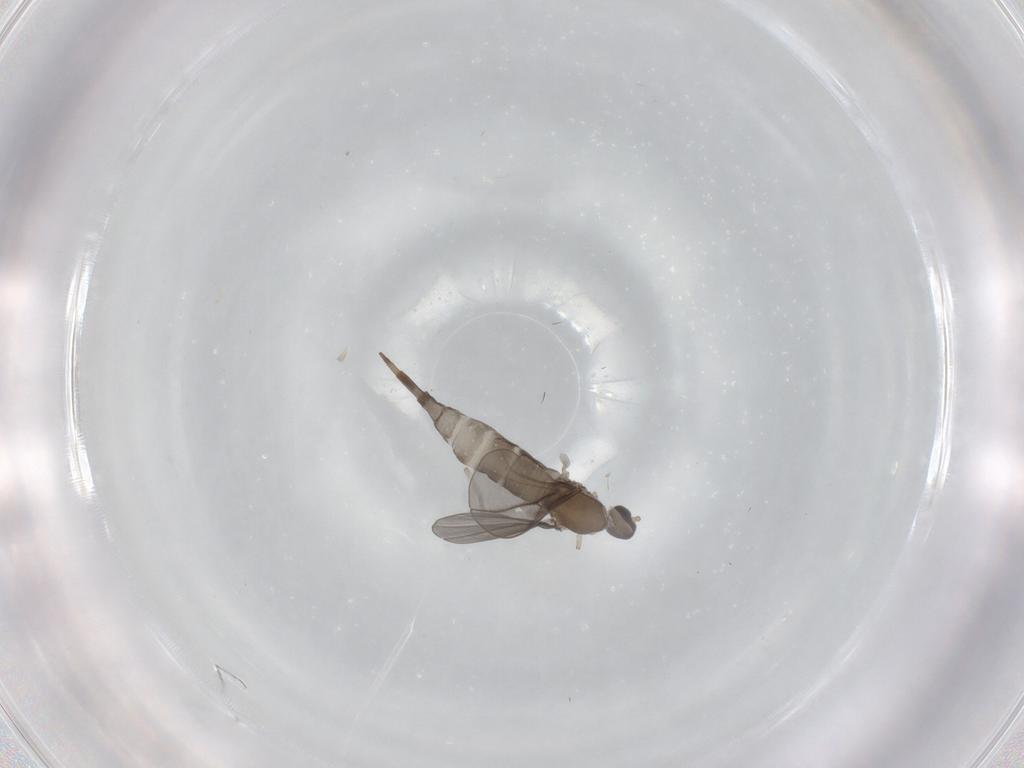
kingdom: Animalia
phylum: Arthropoda
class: Insecta
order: Diptera
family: Cecidomyiidae
